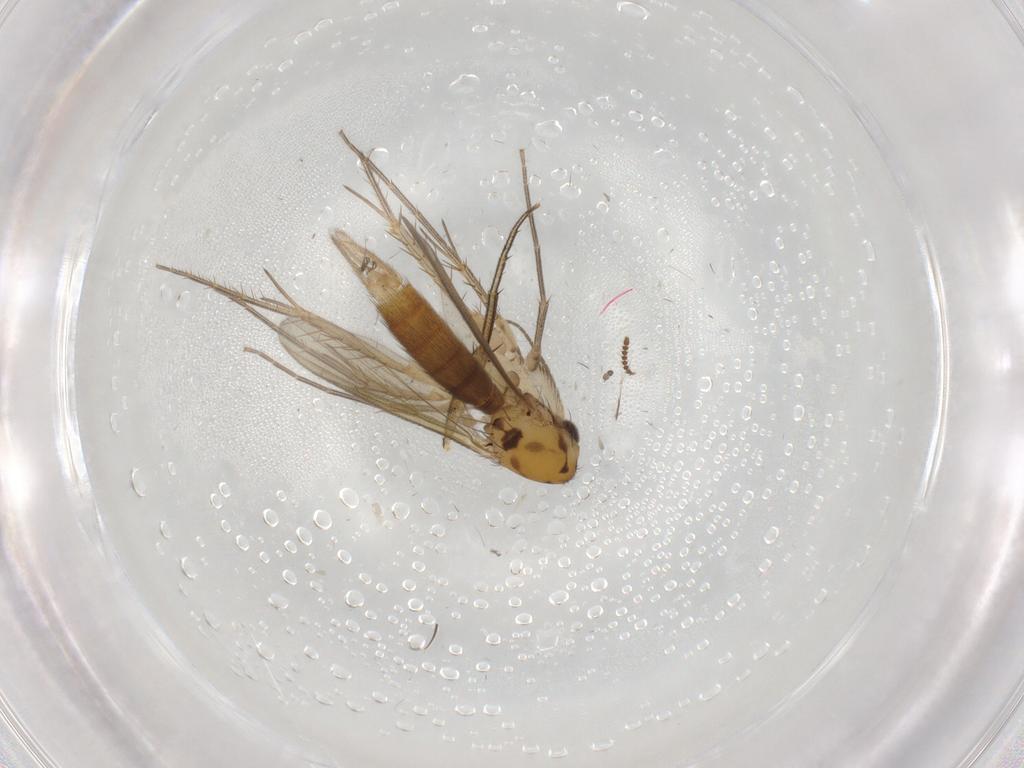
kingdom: Animalia
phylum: Arthropoda
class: Insecta
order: Diptera
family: Mycetophilidae
